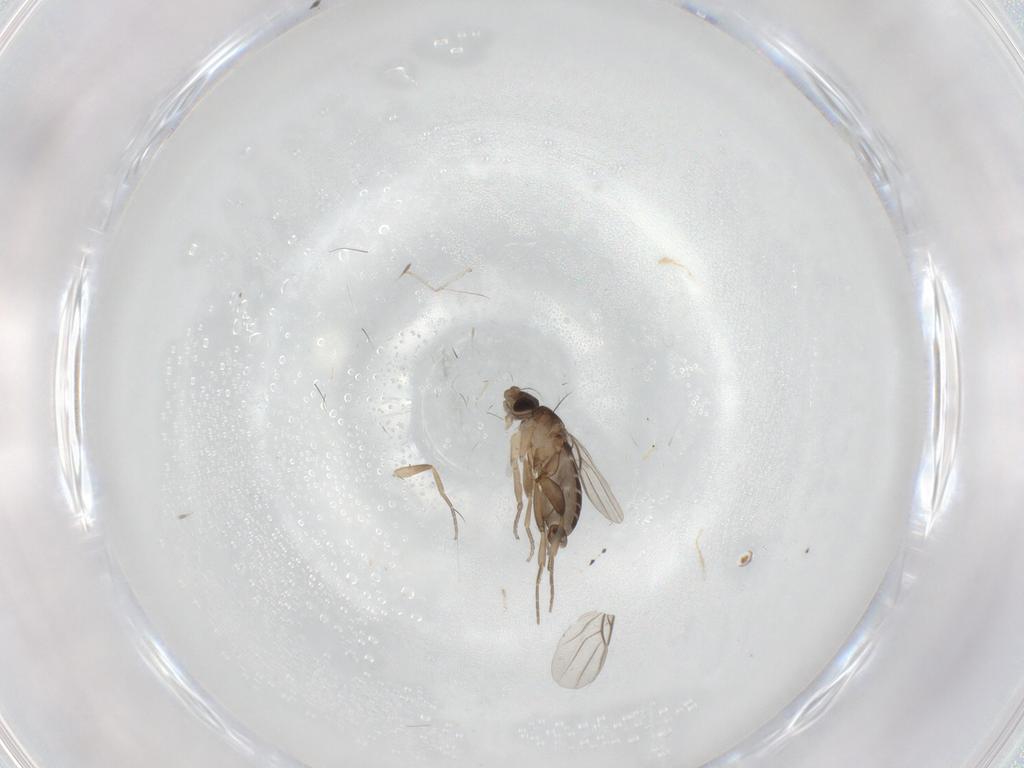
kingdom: Animalia
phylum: Arthropoda
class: Insecta
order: Diptera
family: Phoridae
